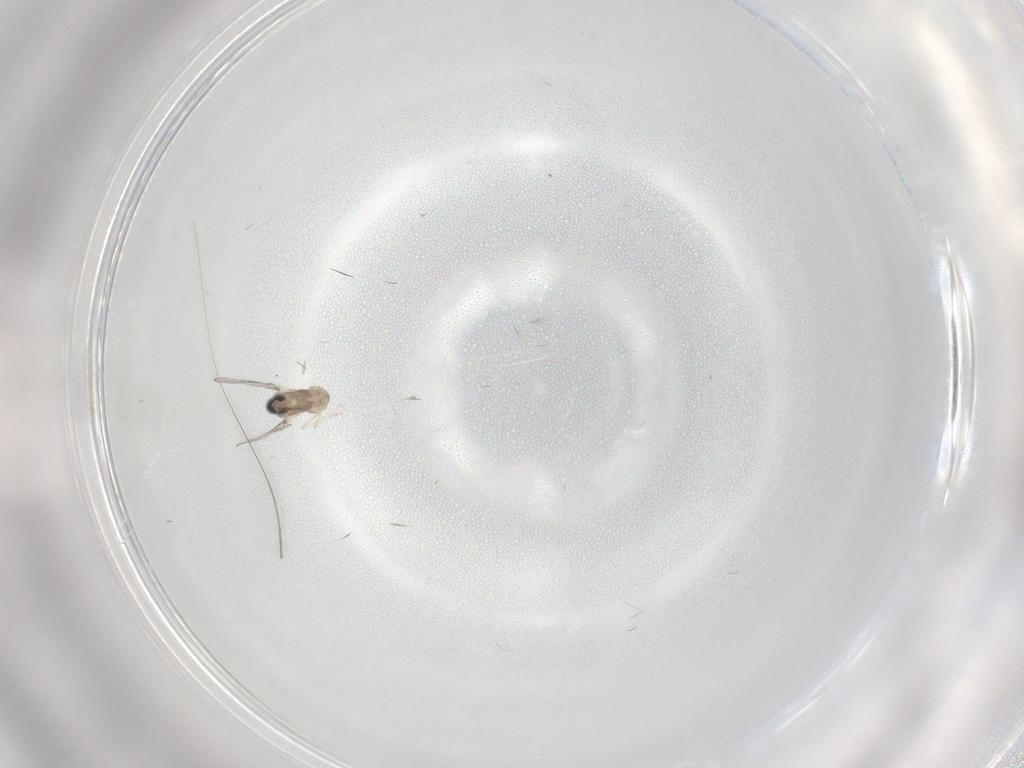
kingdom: Animalia
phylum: Arthropoda
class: Insecta
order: Diptera
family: Cecidomyiidae
